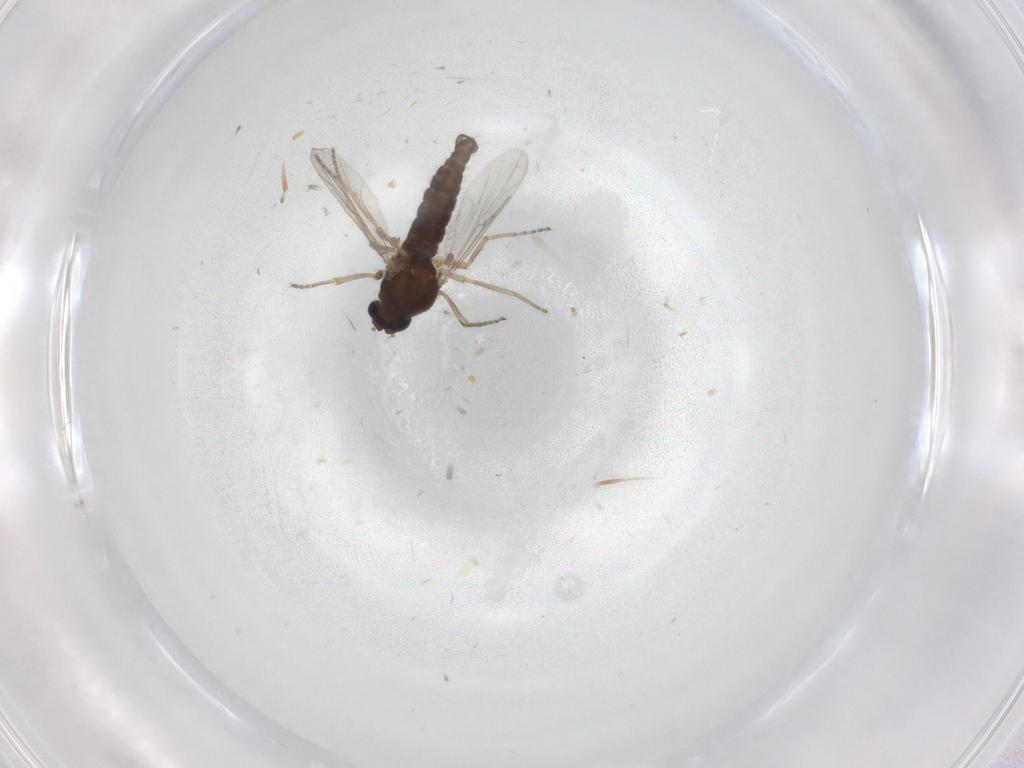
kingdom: Animalia
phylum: Arthropoda
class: Insecta
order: Diptera
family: Ceratopogonidae
